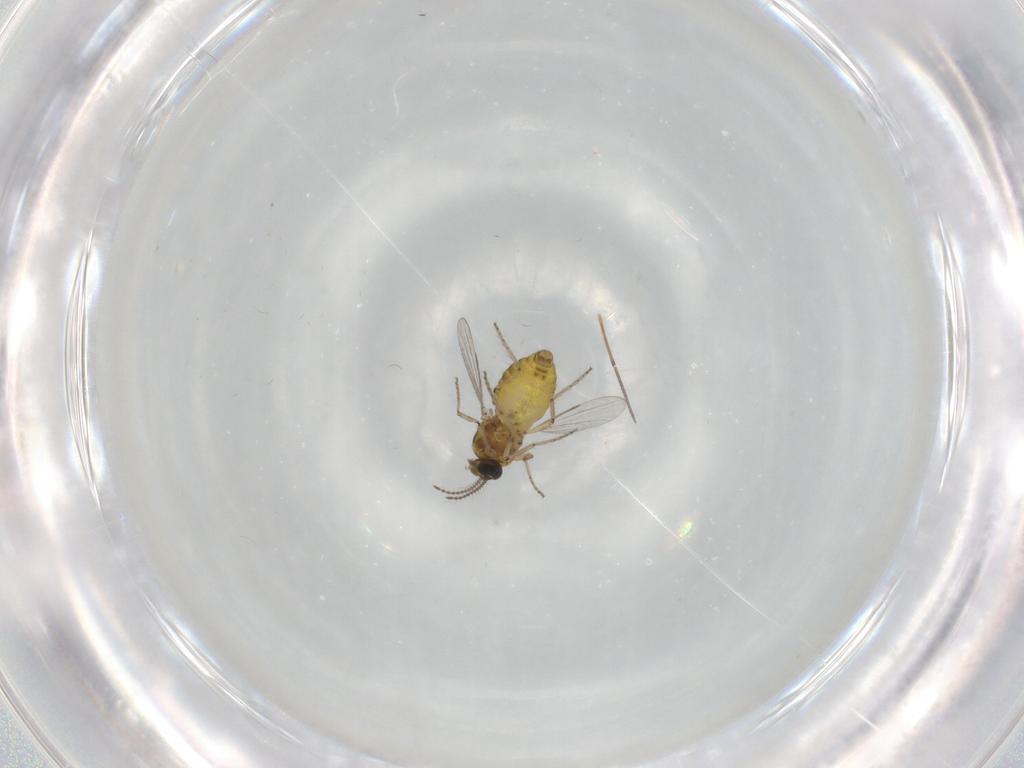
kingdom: Animalia
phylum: Arthropoda
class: Insecta
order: Diptera
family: Ceratopogonidae
